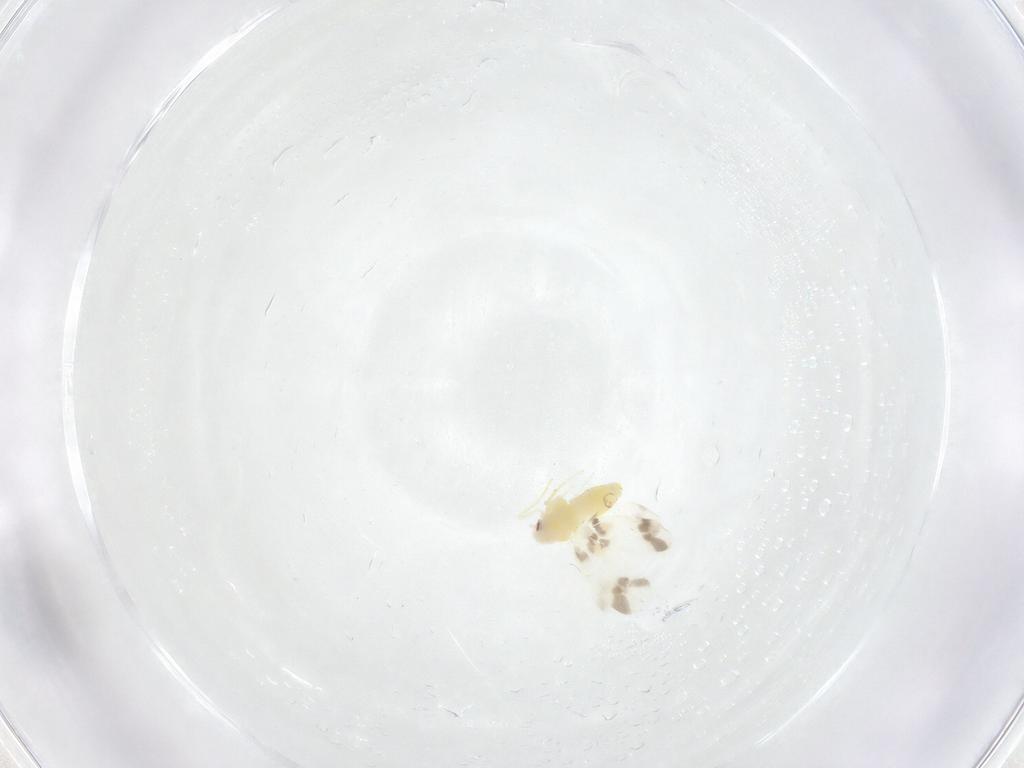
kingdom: Animalia
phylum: Arthropoda
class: Insecta
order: Hemiptera
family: Aleyrodidae
